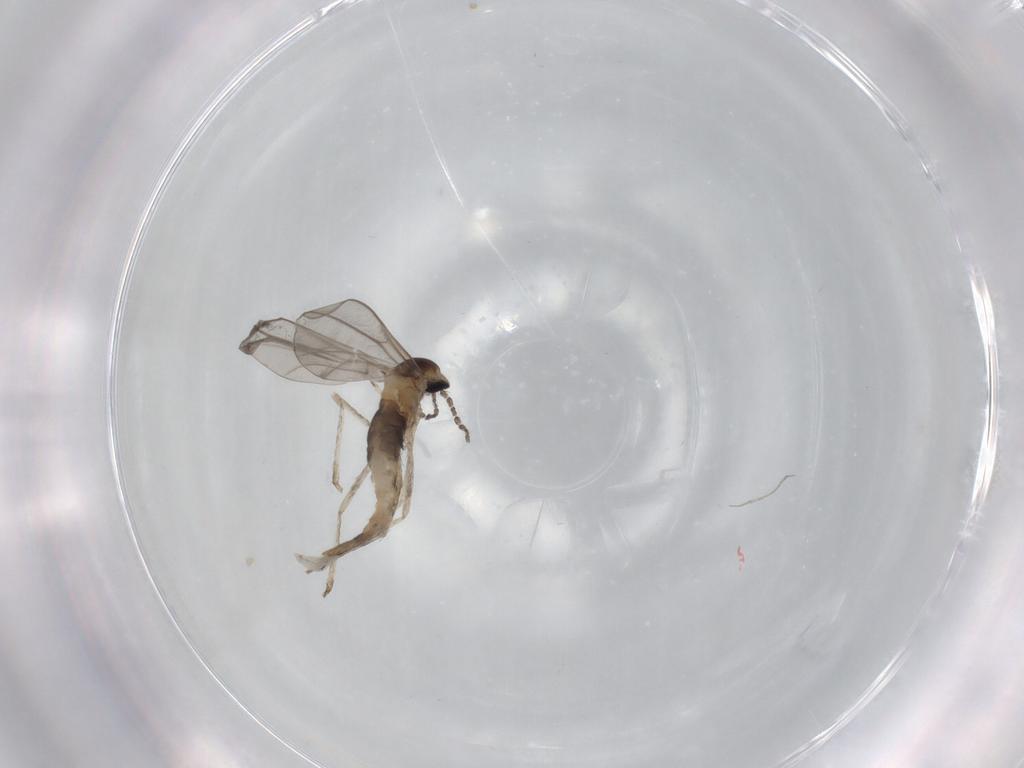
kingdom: Animalia
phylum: Arthropoda
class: Insecta
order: Diptera
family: Cecidomyiidae
